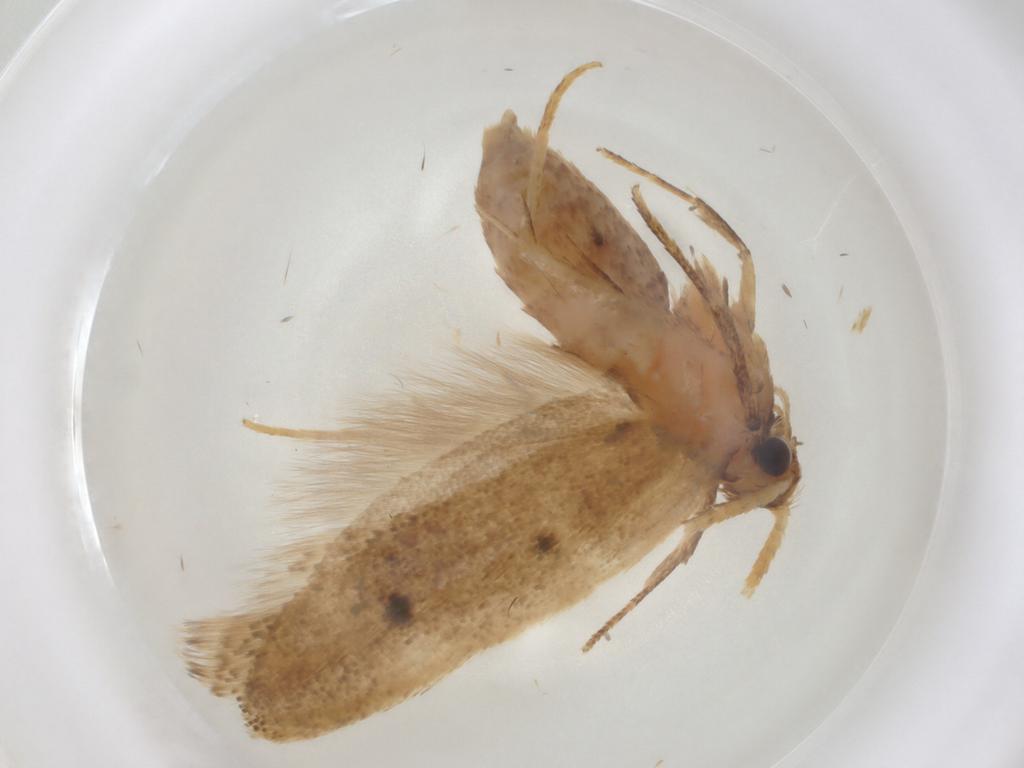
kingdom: Animalia
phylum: Arthropoda
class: Insecta
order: Lepidoptera
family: Lecithoceridae
